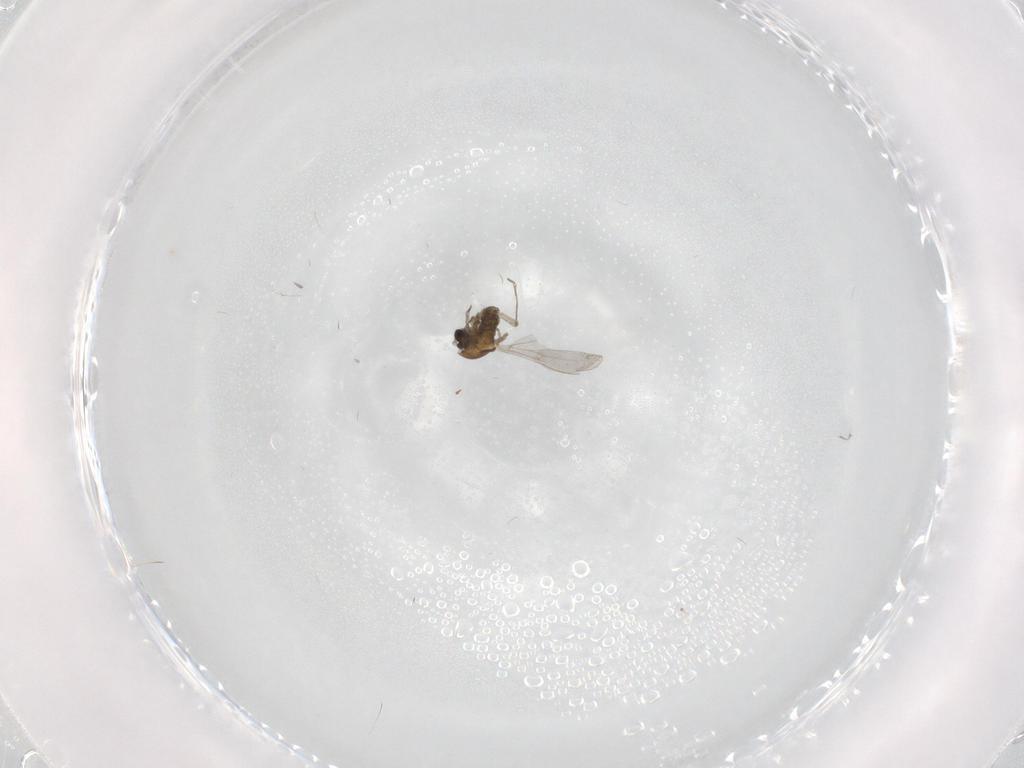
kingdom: Animalia
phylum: Arthropoda
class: Insecta
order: Diptera
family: Cecidomyiidae
